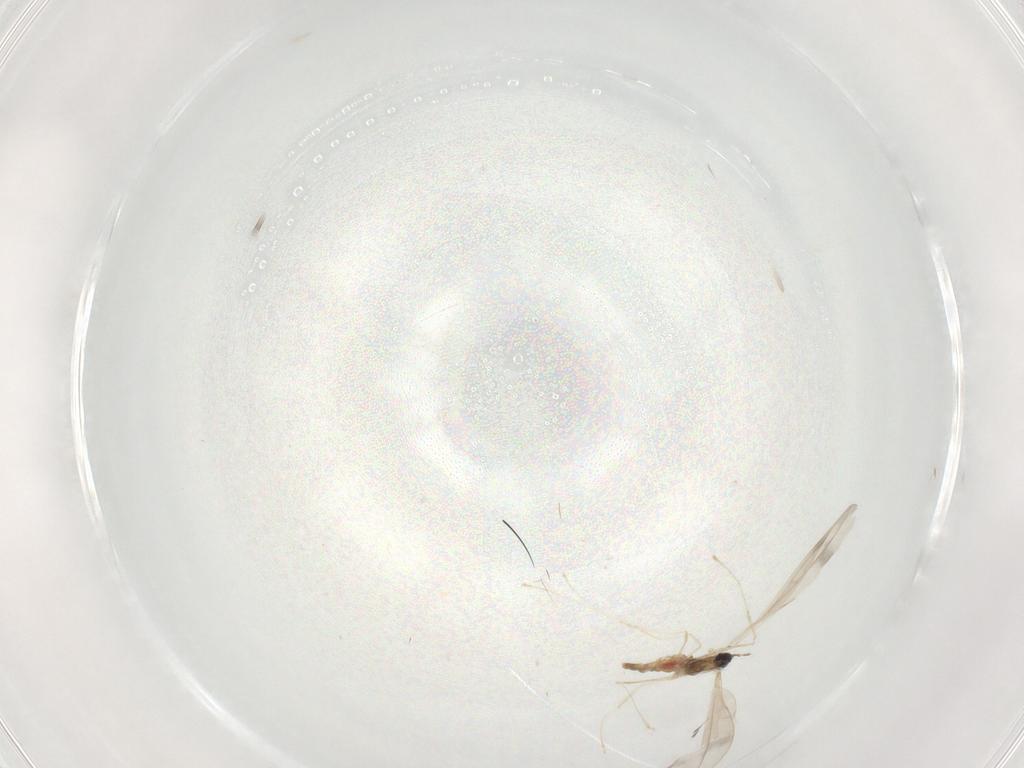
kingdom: Animalia
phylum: Arthropoda
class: Insecta
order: Diptera
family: Cecidomyiidae
